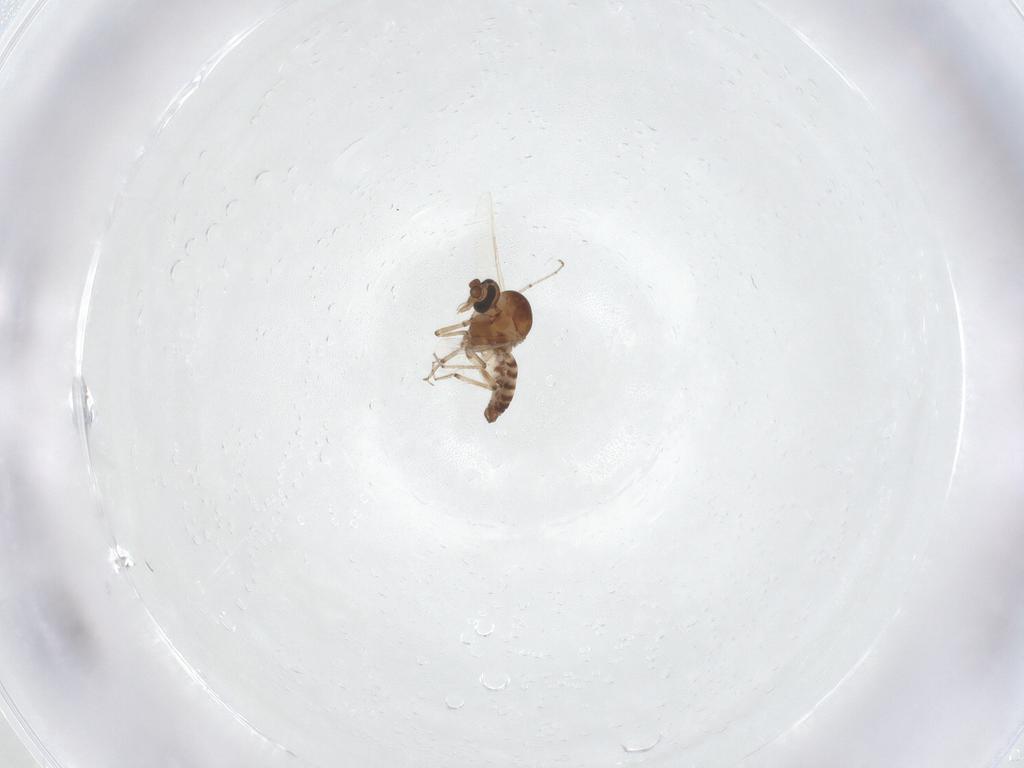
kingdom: Animalia
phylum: Arthropoda
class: Insecta
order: Diptera
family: Ceratopogonidae
